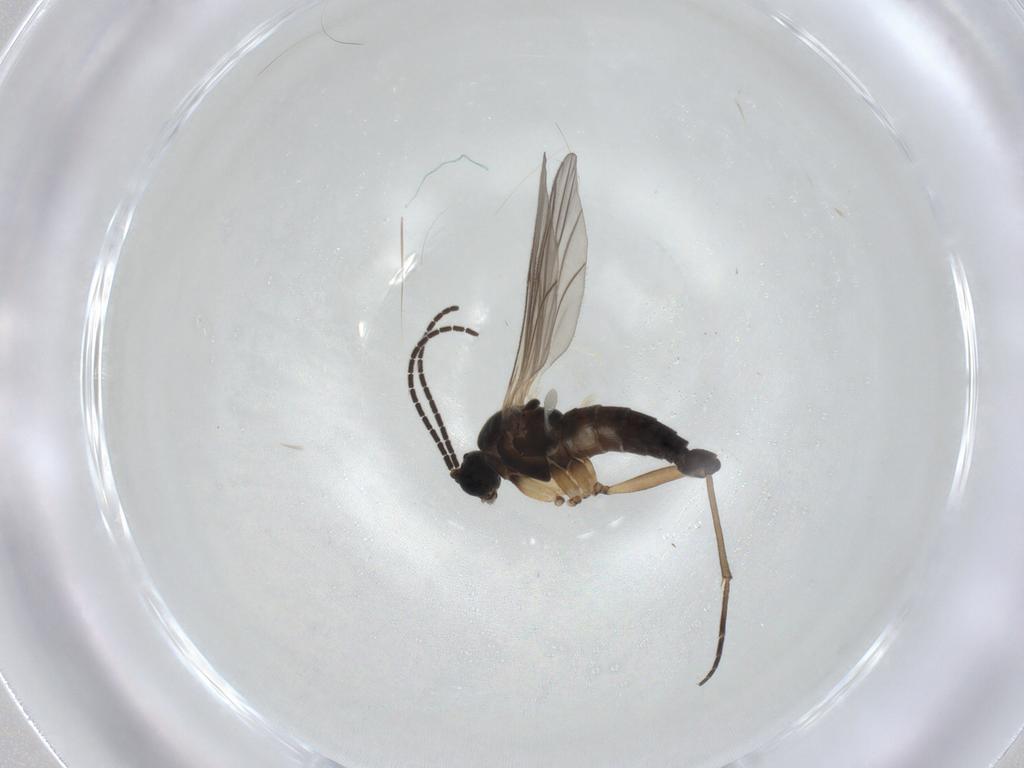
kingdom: Animalia
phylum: Arthropoda
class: Insecta
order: Diptera
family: Sciaridae
